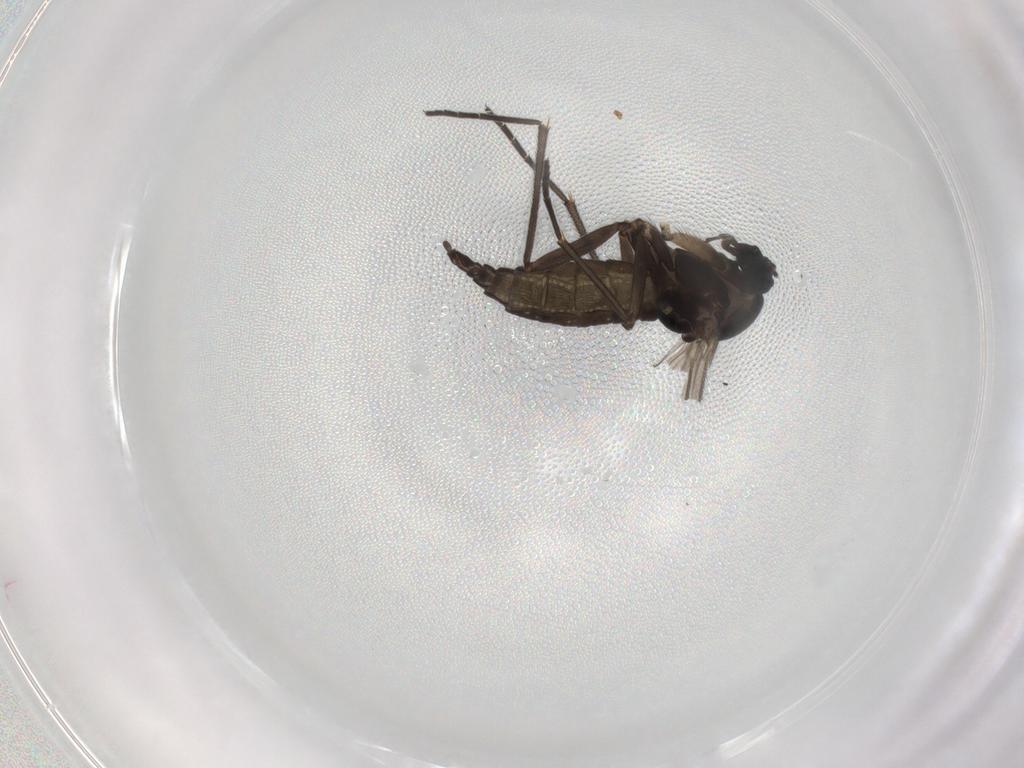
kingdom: Animalia
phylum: Arthropoda
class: Insecta
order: Diptera
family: Sciaridae
